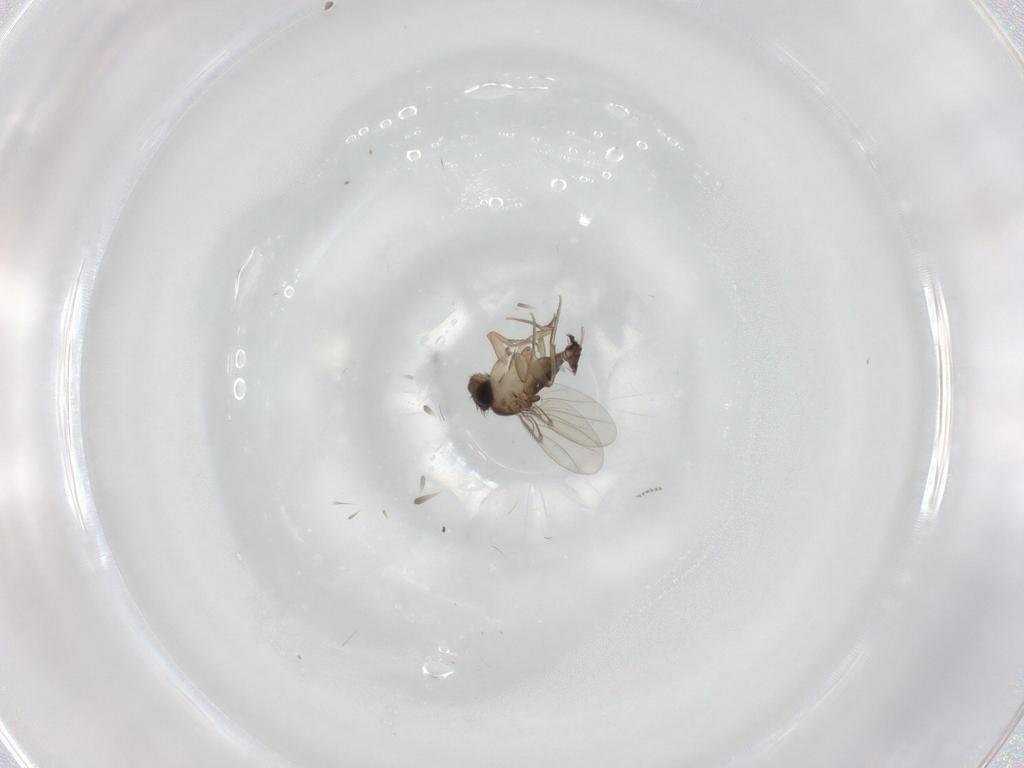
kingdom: Animalia
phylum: Arthropoda
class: Insecta
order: Diptera
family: Phoridae
